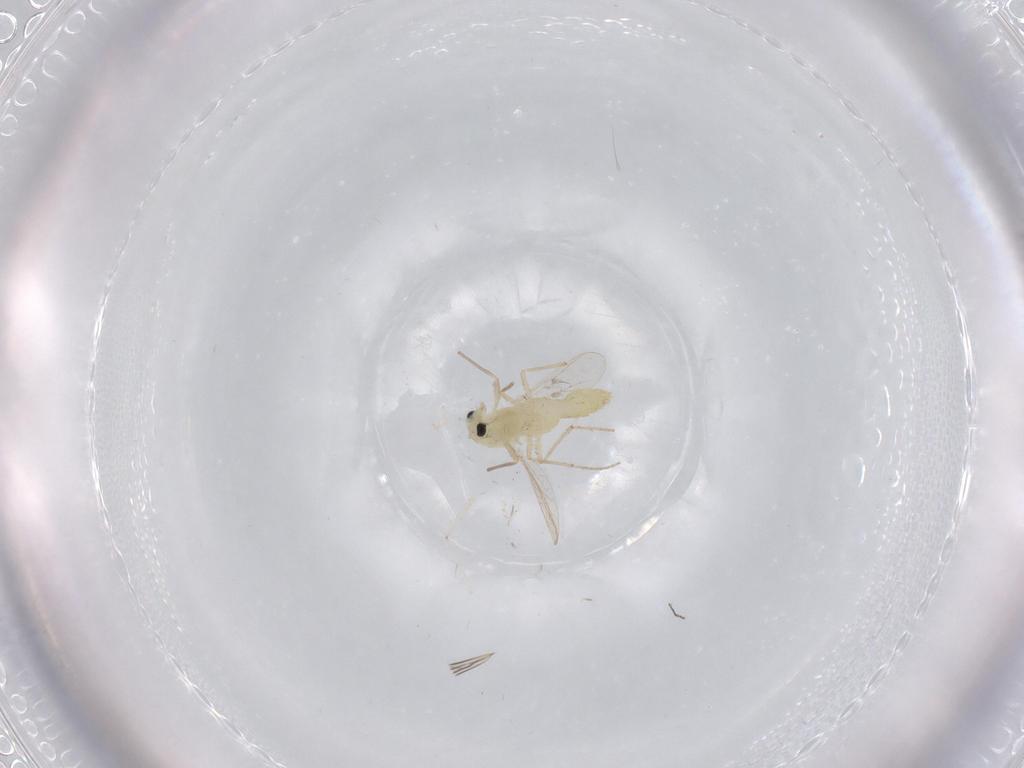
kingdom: Animalia
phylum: Arthropoda
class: Insecta
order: Diptera
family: Chironomidae
